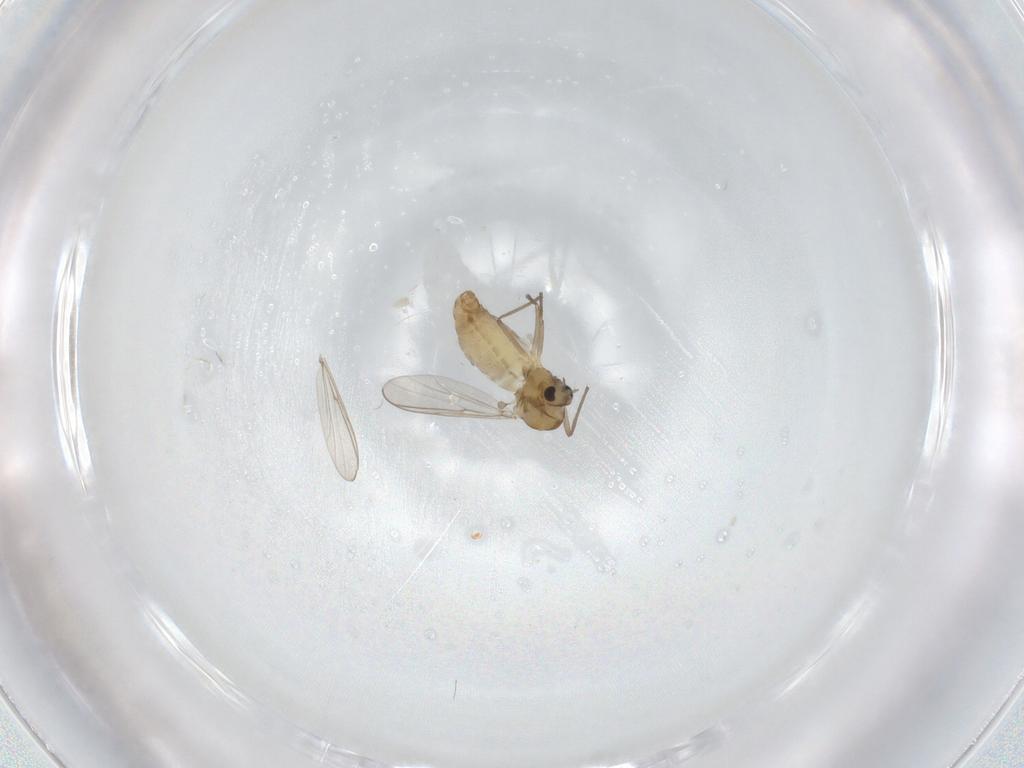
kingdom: Animalia
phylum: Arthropoda
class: Insecta
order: Diptera
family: Chironomidae
